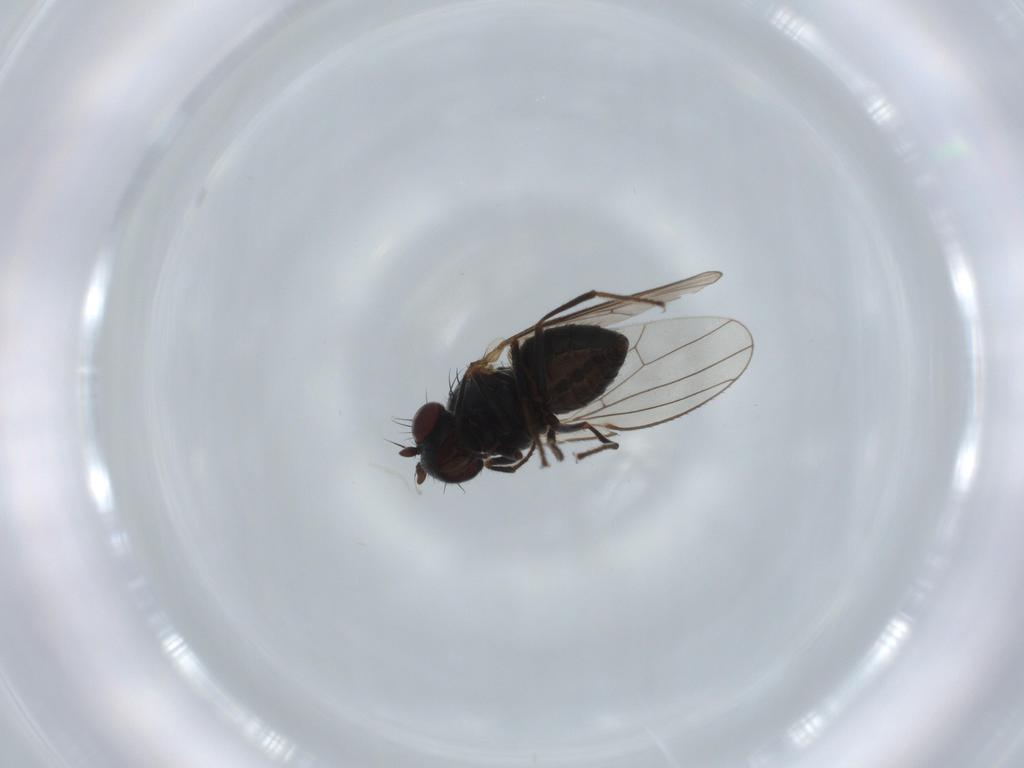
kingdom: Animalia
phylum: Arthropoda
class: Insecta
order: Diptera
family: Ephydridae
